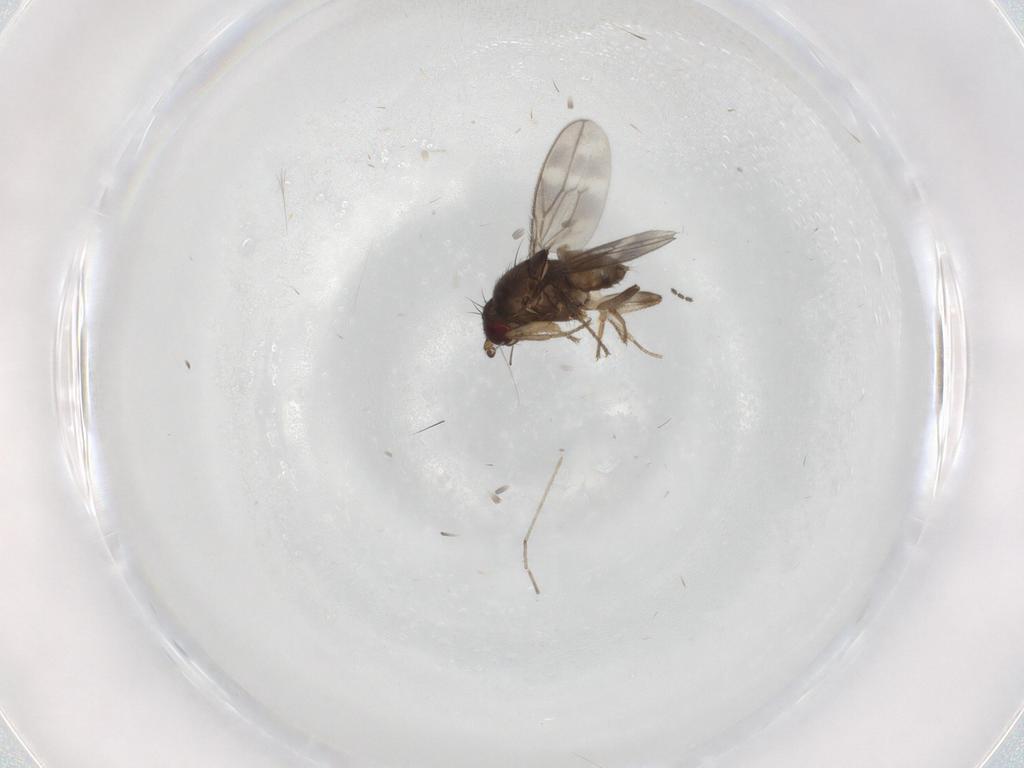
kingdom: Animalia
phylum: Arthropoda
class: Insecta
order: Diptera
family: Sphaeroceridae
